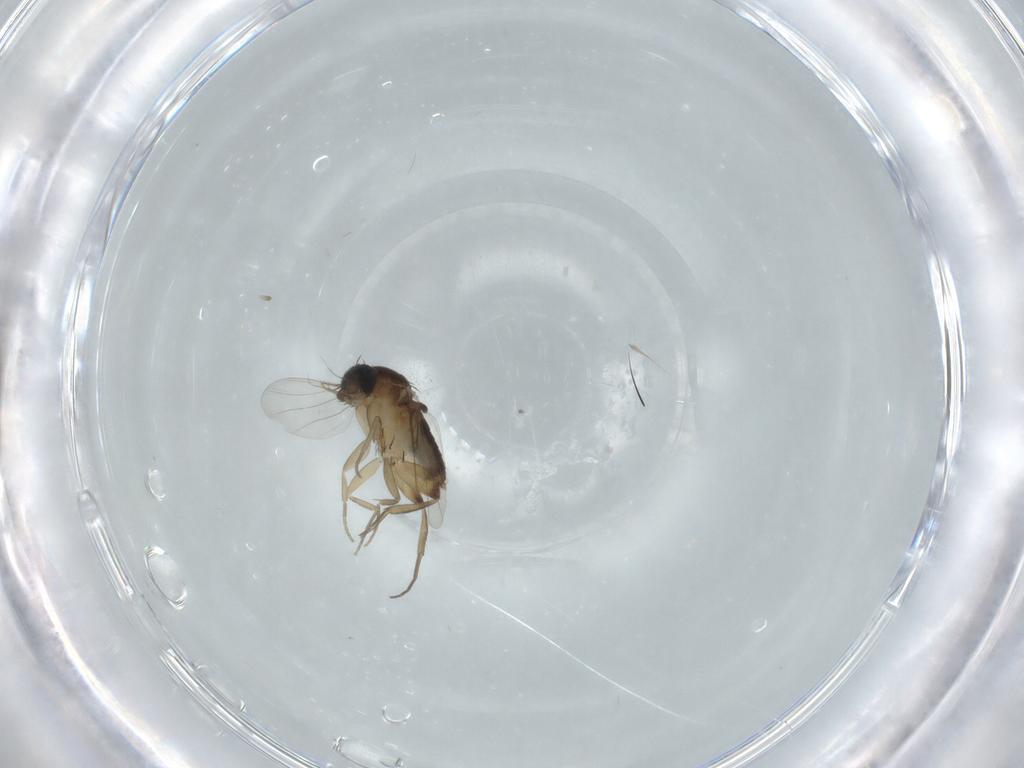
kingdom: Animalia
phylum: Arthropoda
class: Insecta
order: Diptera
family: Phoridae
